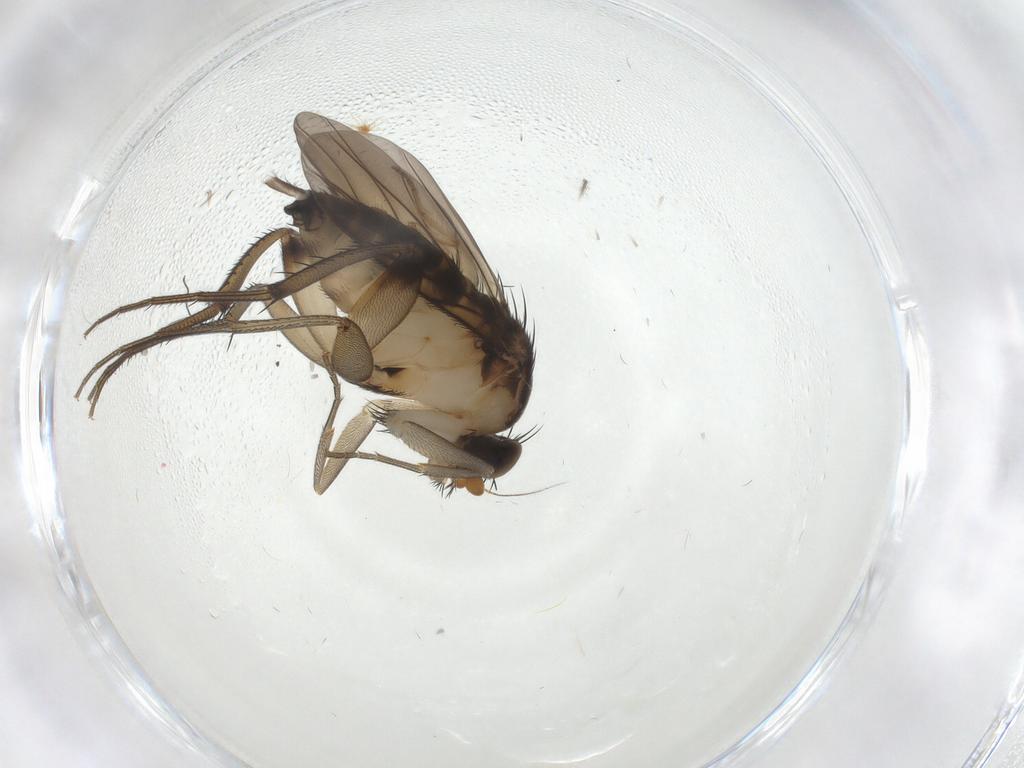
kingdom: Animalia
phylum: Arthropoda
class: Insecta
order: Diptera
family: Phoridae
